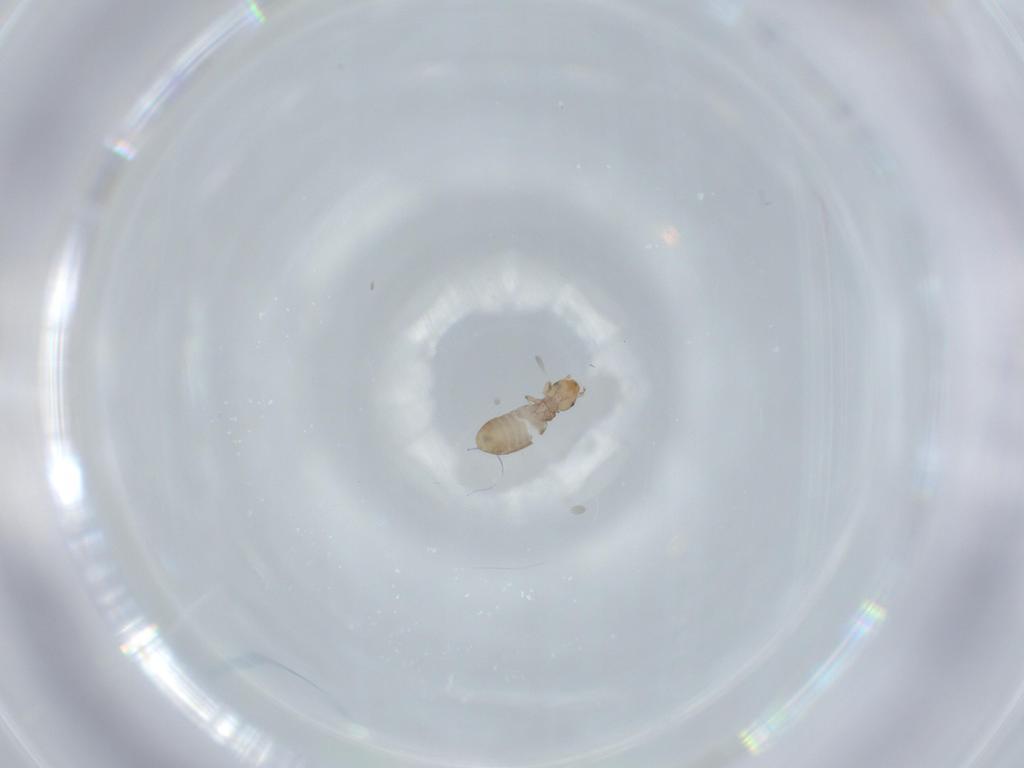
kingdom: Animalia
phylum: Arthropoda
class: Insecta
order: Psocodea
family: Liposcelididae
